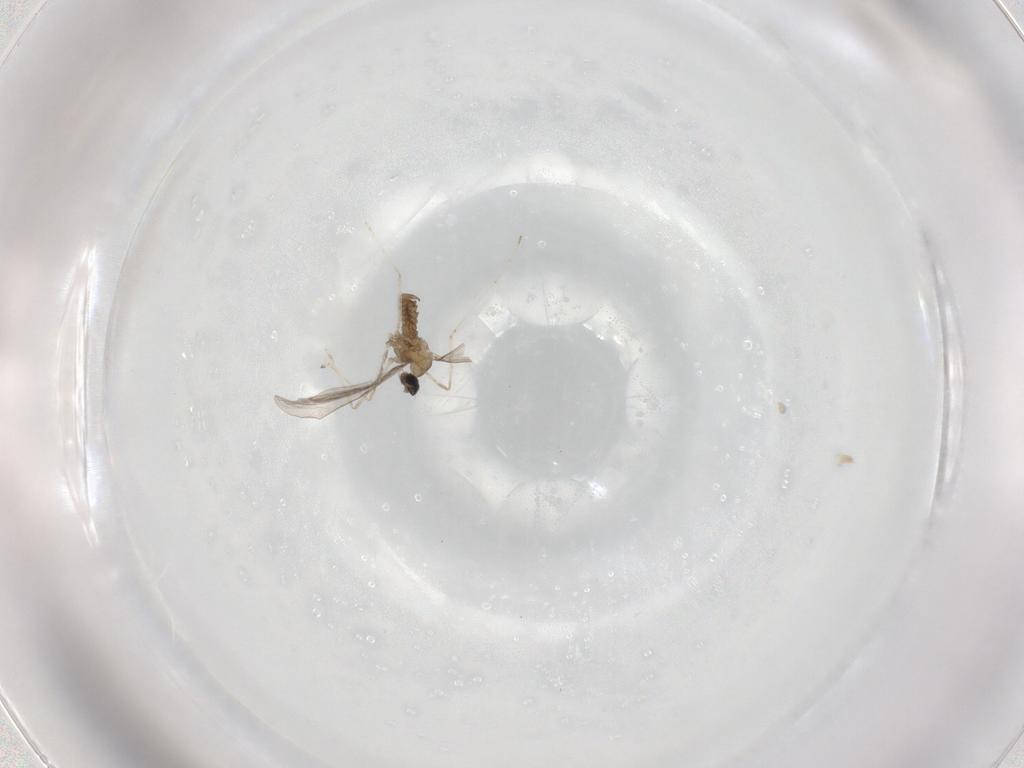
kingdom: Animalia
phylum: Arthropoda
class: Insecta
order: Diptera
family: Cecidomyiidae
